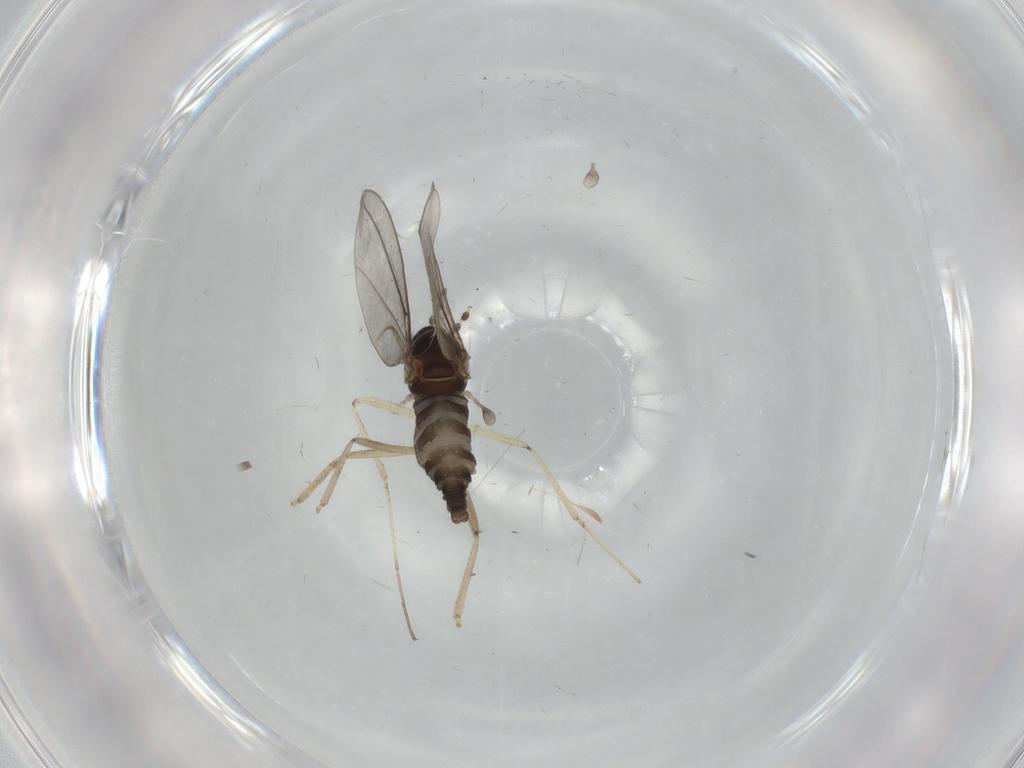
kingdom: Animalia
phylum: Arthropoda
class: Insecta
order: Diptera
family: Cecidomyiidae
